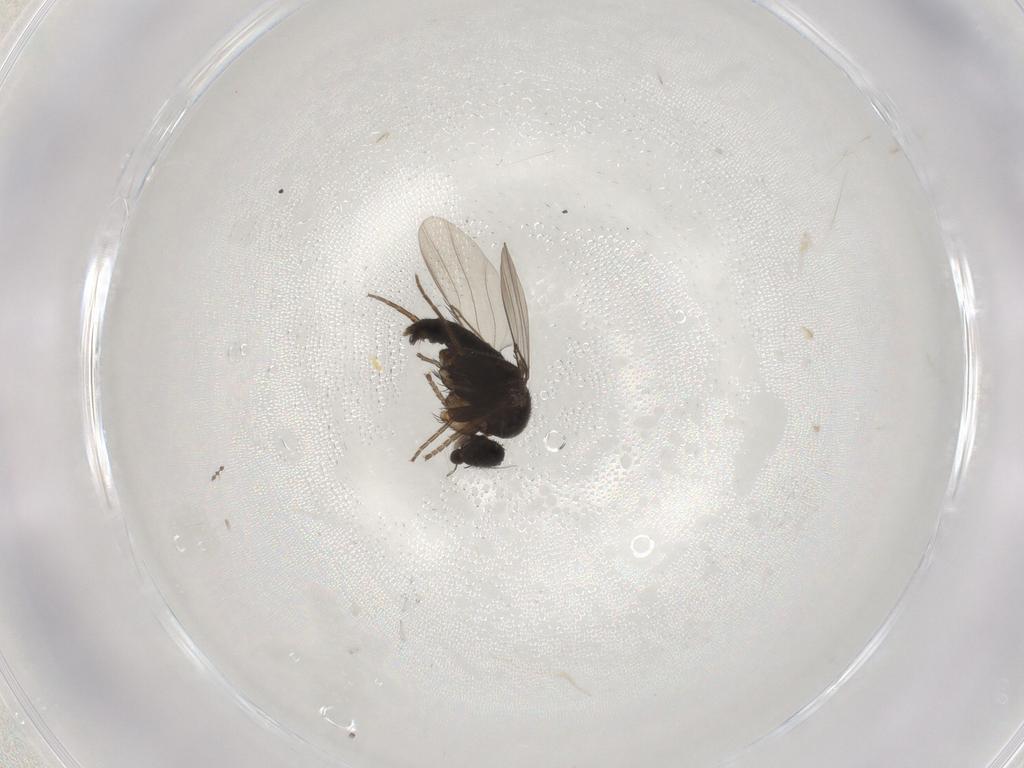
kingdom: Animalia
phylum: Arthropoda
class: Insecta
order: Diptera
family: Phoridae
